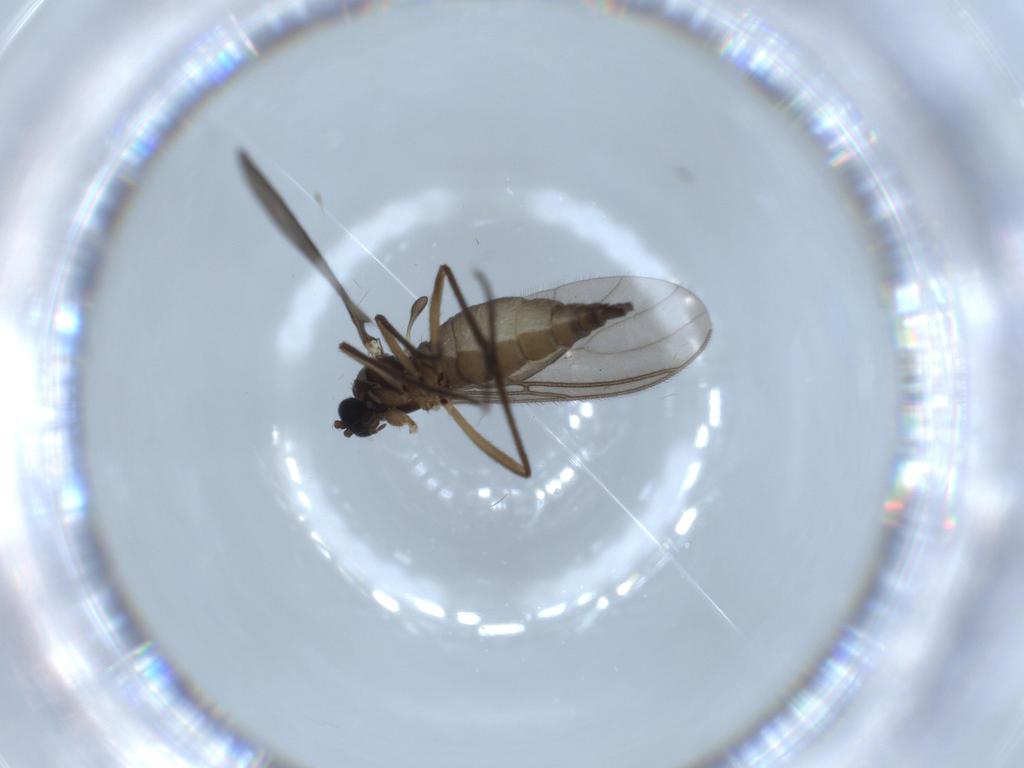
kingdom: Animalia
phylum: Arthropoda
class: Insecta
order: Diptera
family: Sciaridae
